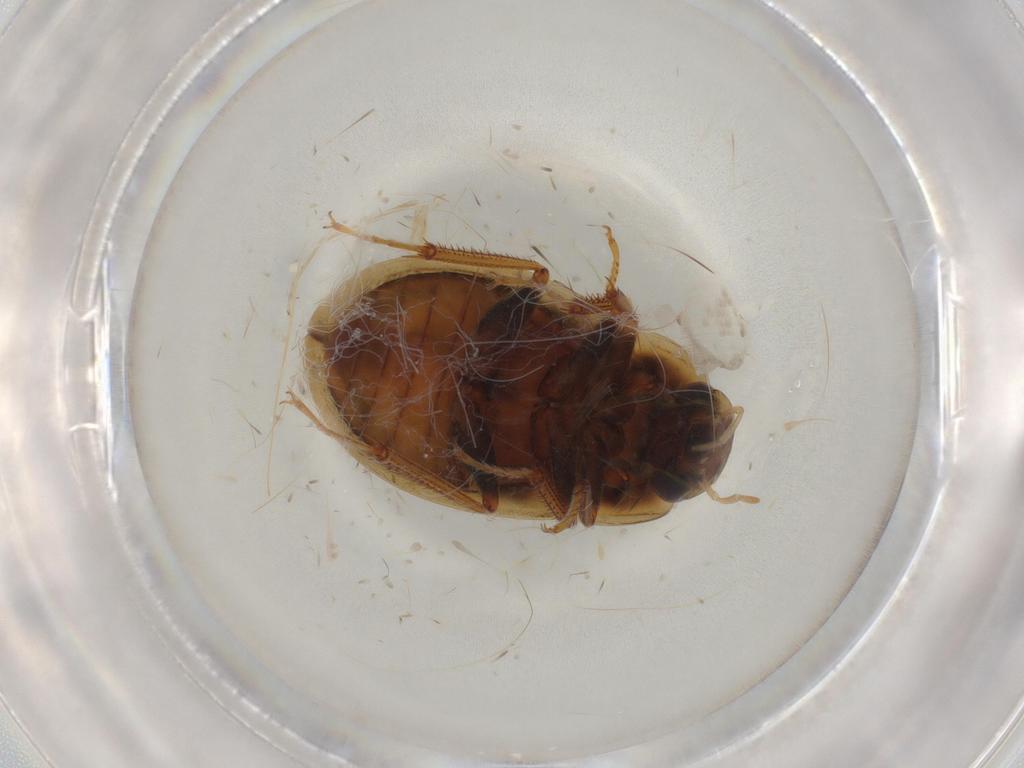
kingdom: Animalia
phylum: Arthropoda
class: Insecta
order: Coleoptera
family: Hydrophilidae
